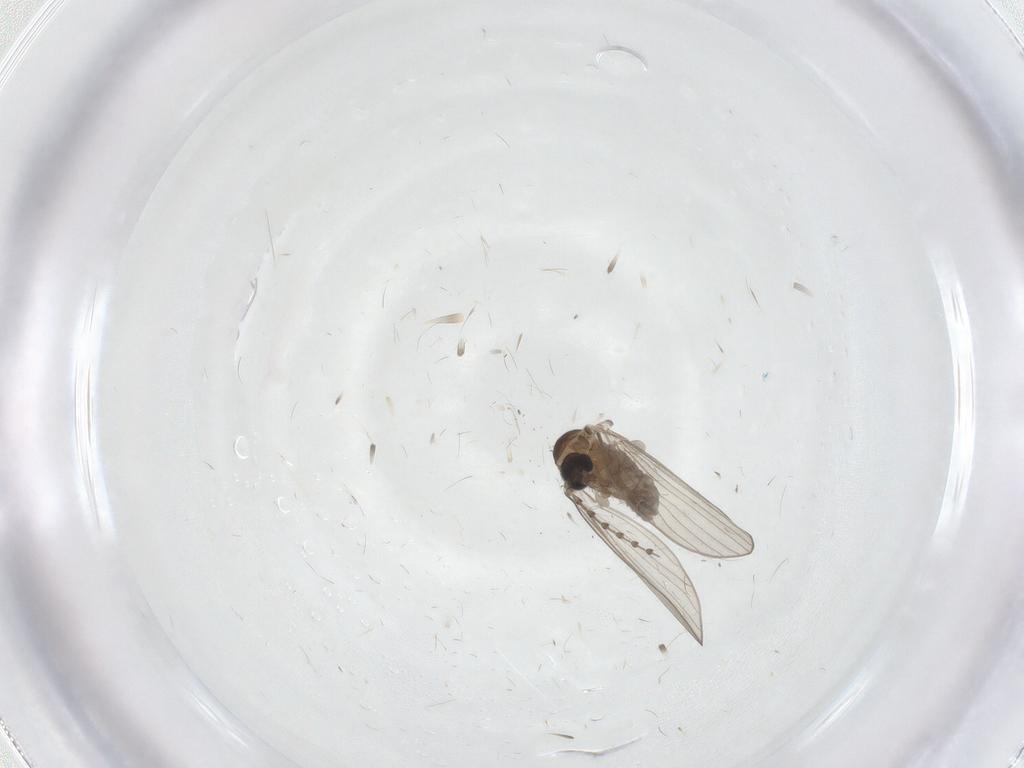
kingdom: Animalia
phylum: Arthropoda
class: Insecta
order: Diptera
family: Psychodidae
